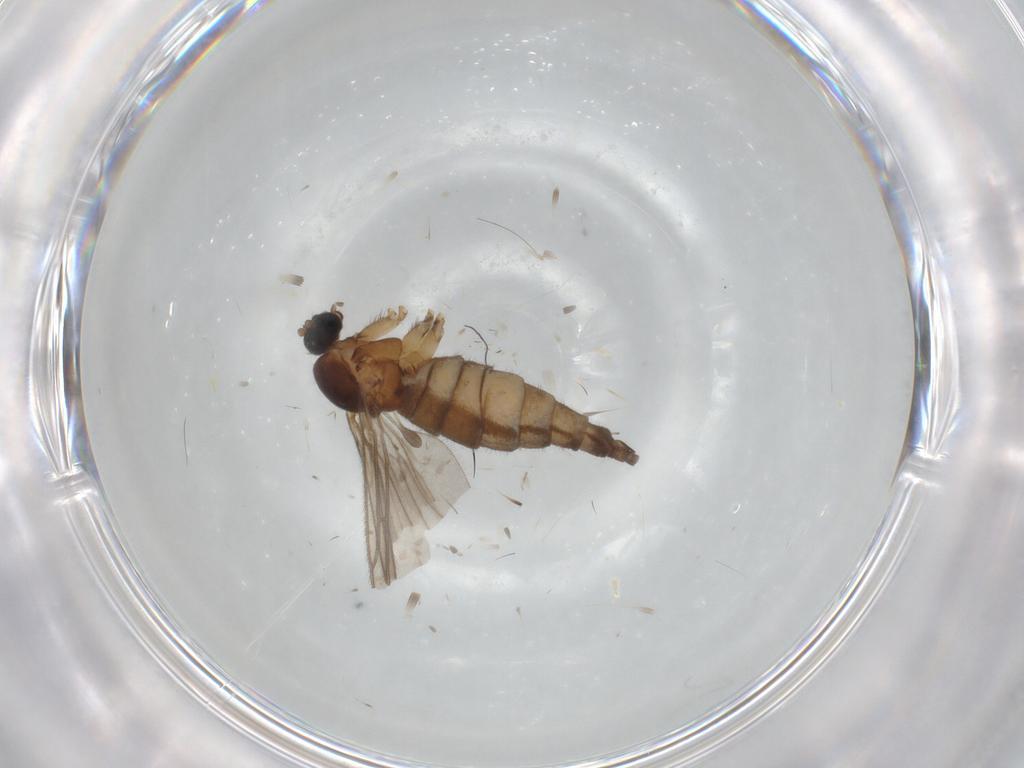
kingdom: Animalia
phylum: Arthropoda
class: Insecta
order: Diptera
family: Sciaridae
